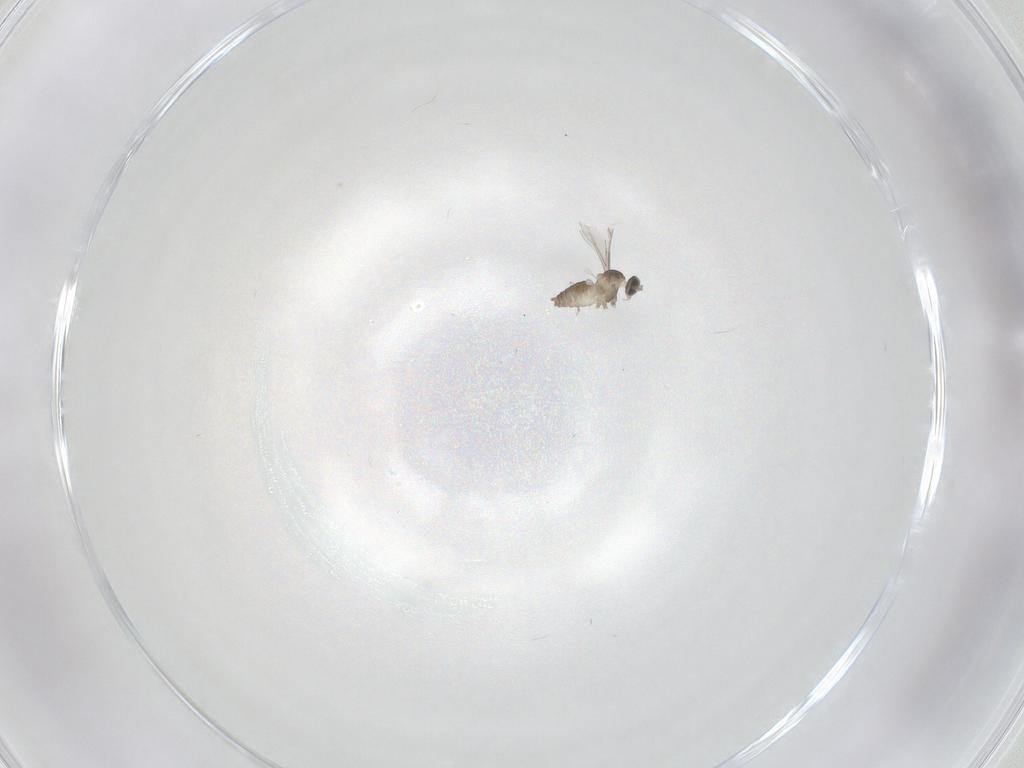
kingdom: Animalia
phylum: Arthropoda
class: Insecta
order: Diptera
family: Cecidomyiidae
